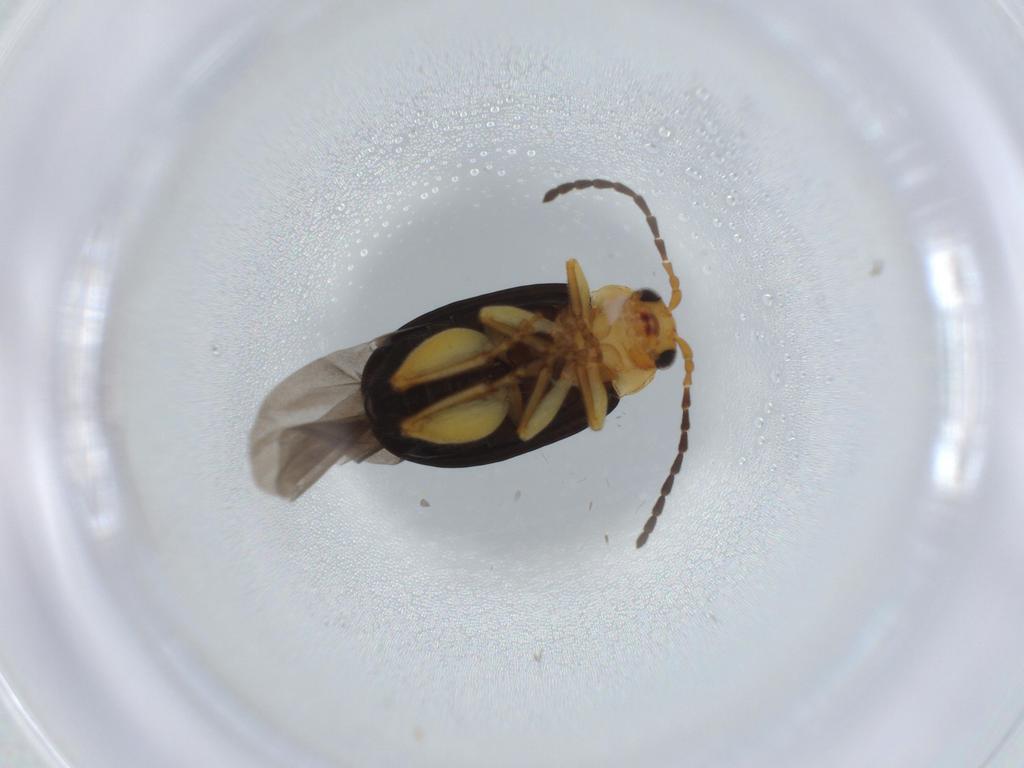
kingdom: Animalia
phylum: Arthropoda
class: Insecta
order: Coleoptera
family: Chrysomelidae
